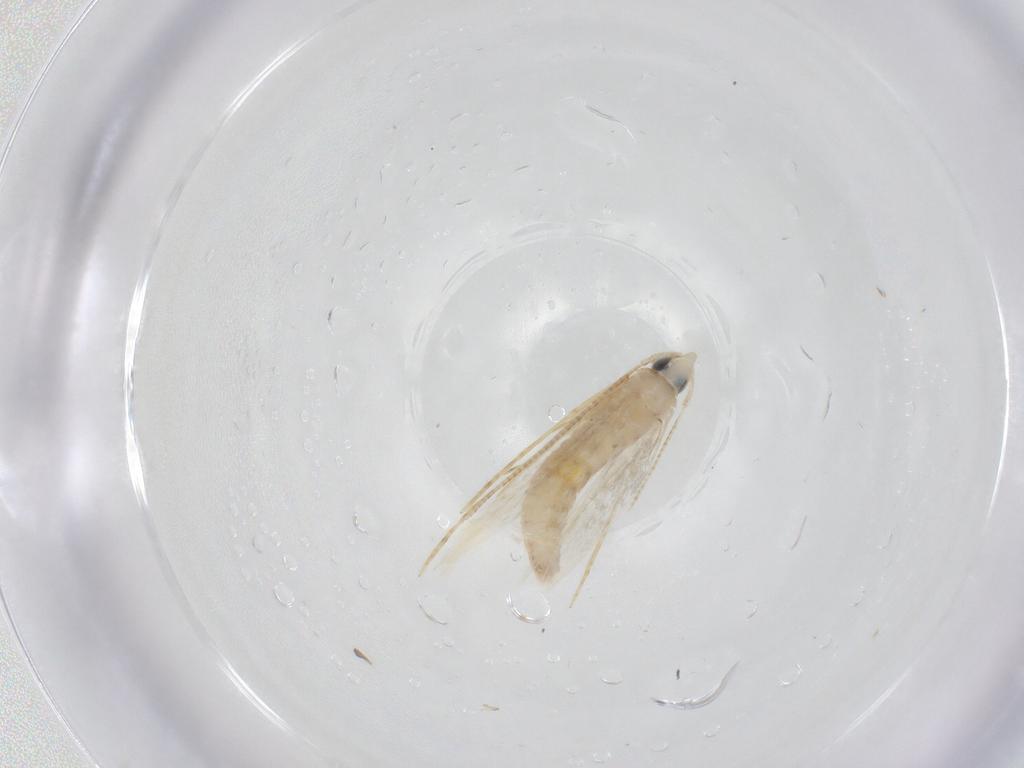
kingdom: Animalia
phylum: Arthropoda
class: Insecta
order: Lepidoptera
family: Tineidae
